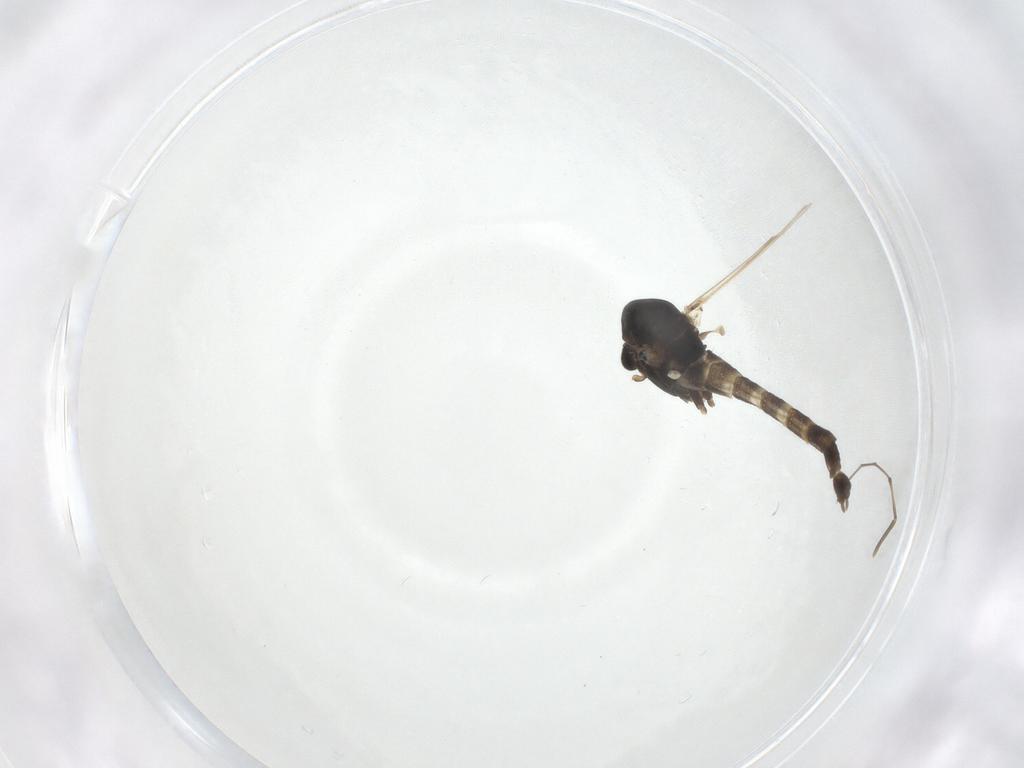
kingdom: Animalia
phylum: Arthropoda
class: Insecta
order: Diptera
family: Chironomidae
